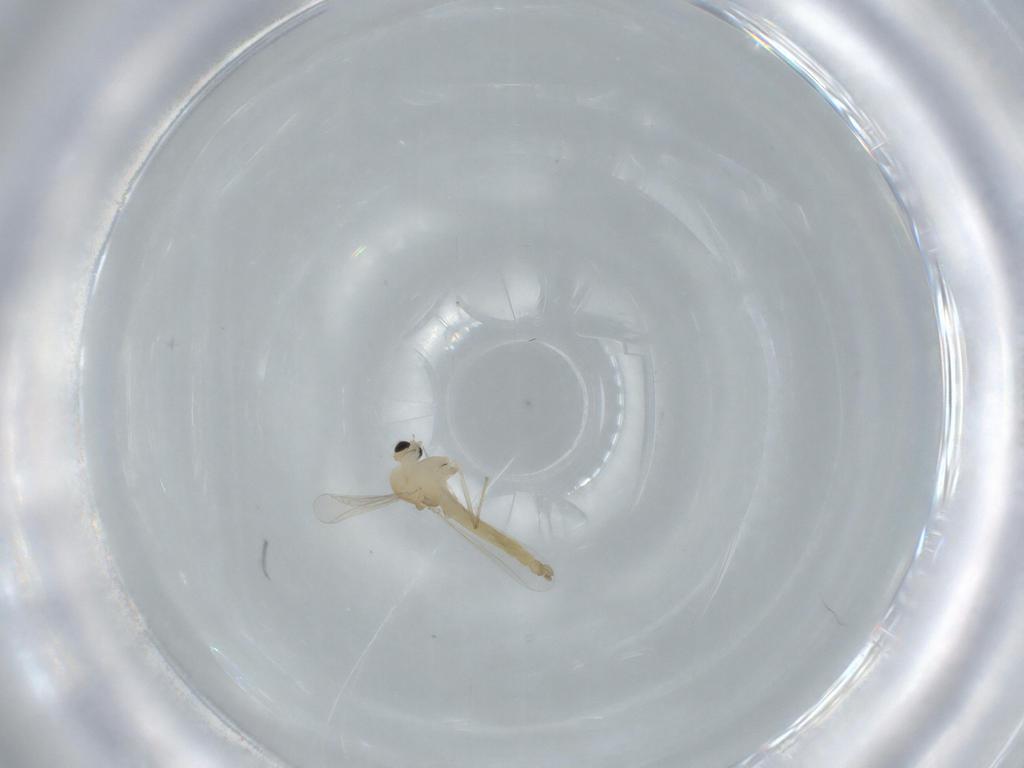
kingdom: Animalia
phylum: Arthropoda
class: Insecta
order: Diptera
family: Chironomidae
